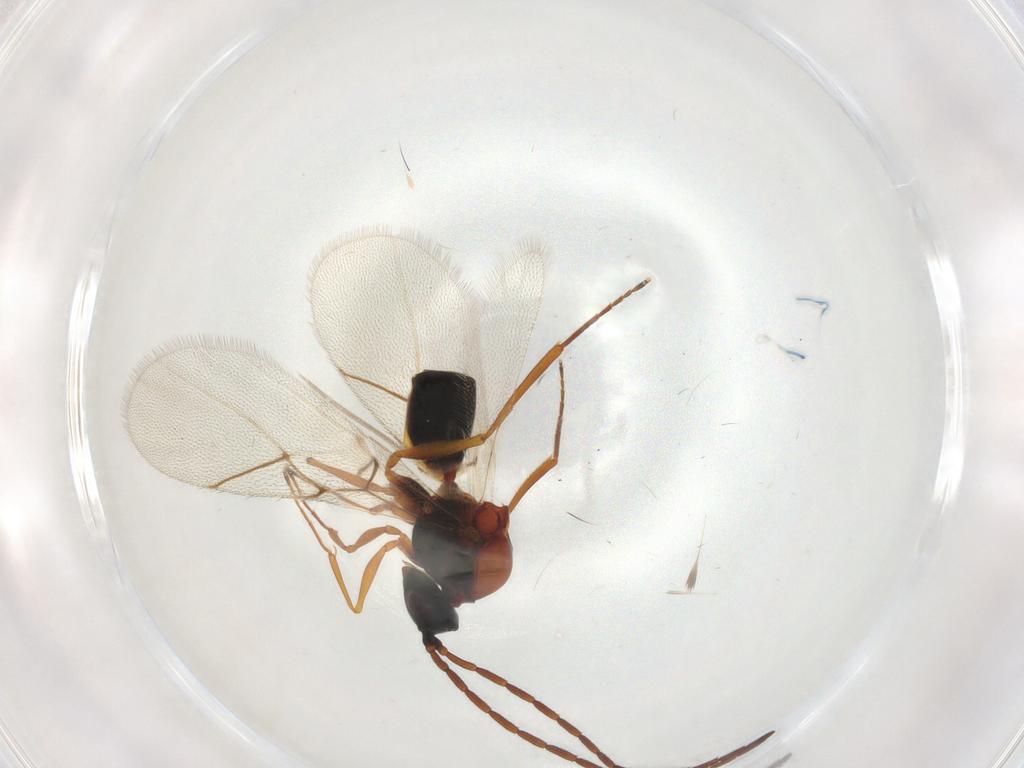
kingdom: Animalia
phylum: Arthropoda
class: Insecta
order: Hymenoptera
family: Figitidae
